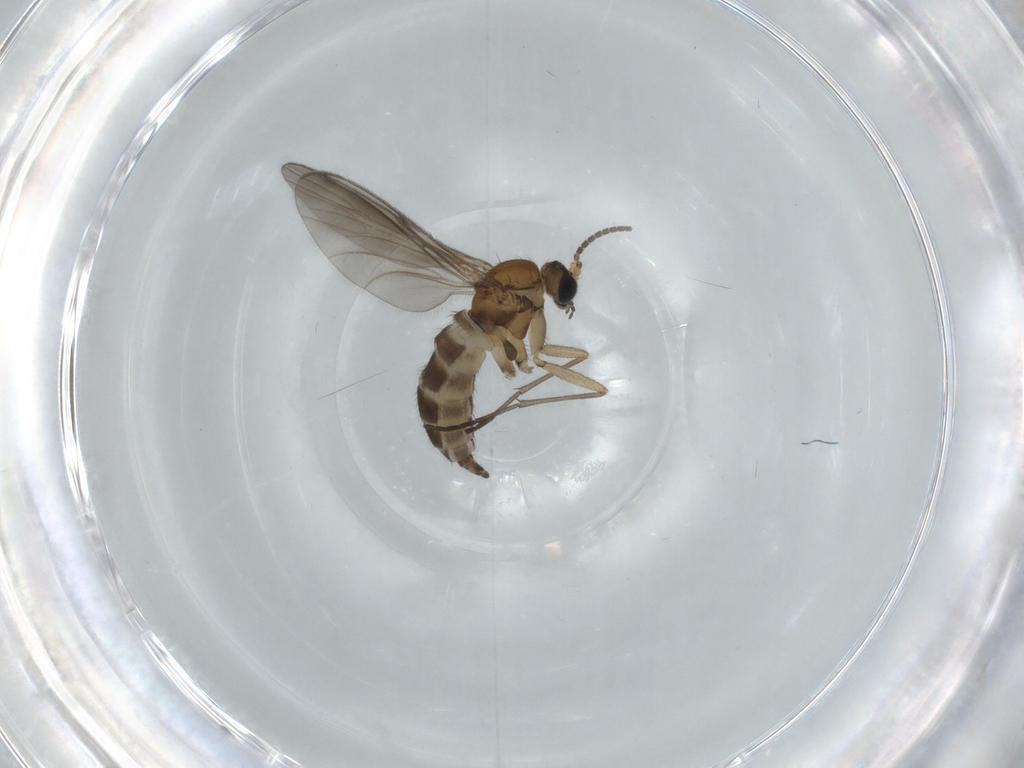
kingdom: Animalia
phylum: Arthropoda
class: Insecta
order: Diptera
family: Sciaridae
